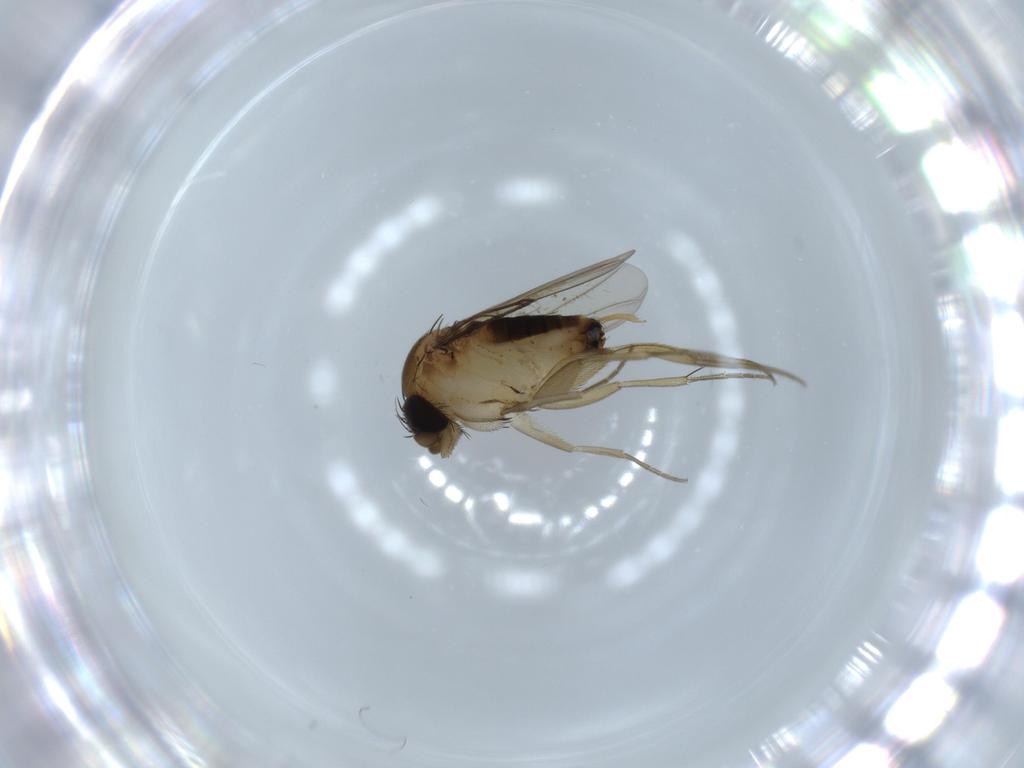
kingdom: Animalia
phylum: Arthropoda
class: Insecta
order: Diptera
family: Phoridae
